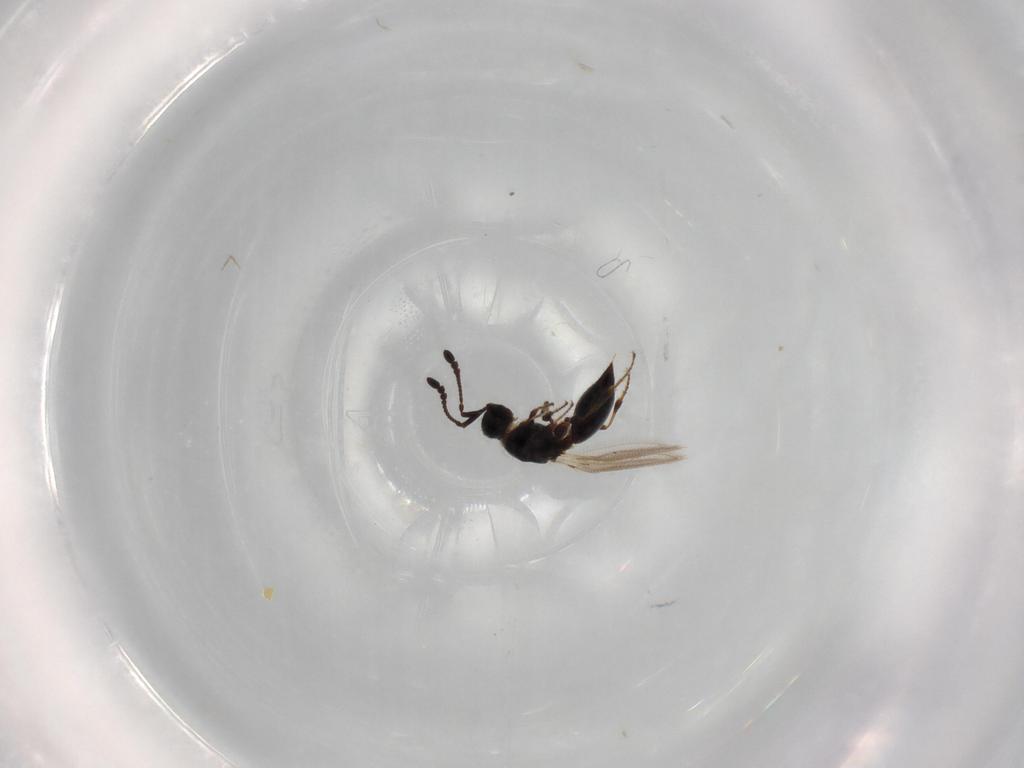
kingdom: Animalia
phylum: Arthropoda
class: Insecta
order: Hymenoptera
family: Diapriidae
